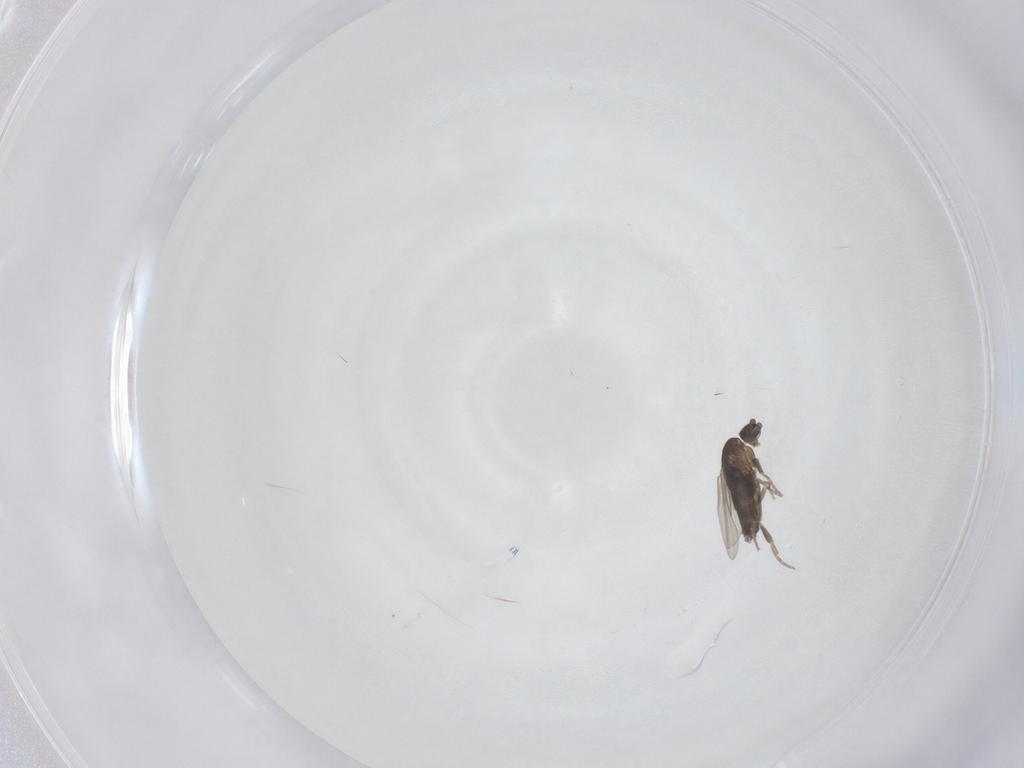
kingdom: Animalia
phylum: Arthropoda
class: Insecta
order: Diptera
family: Phoridae
